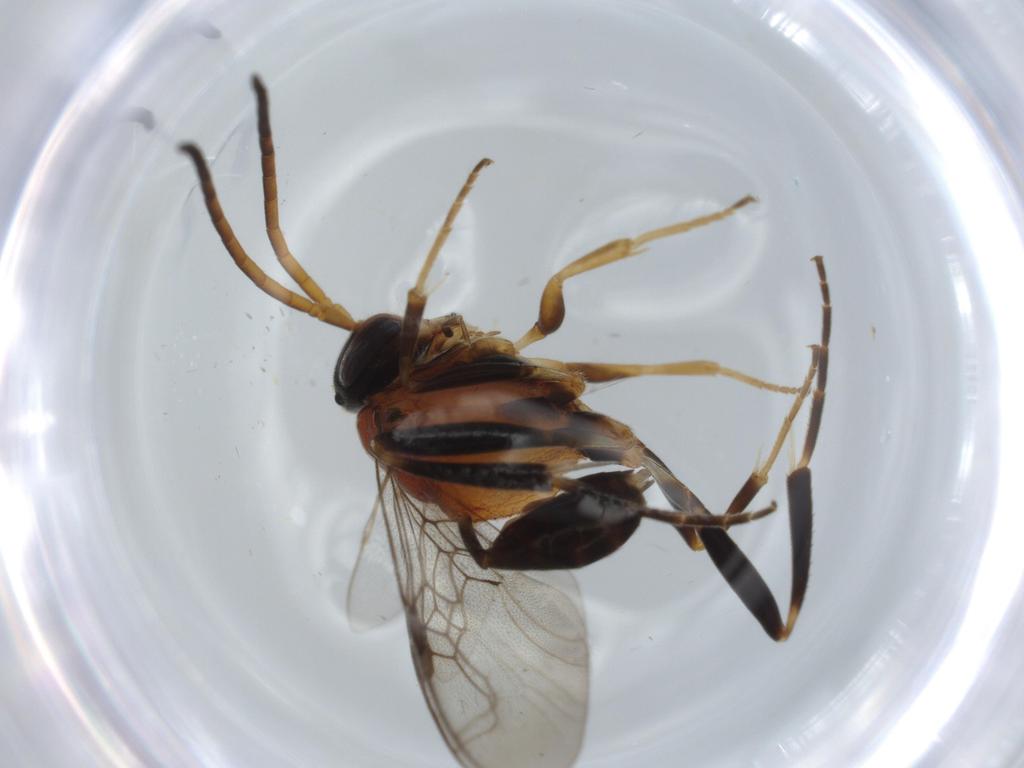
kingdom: Animalia
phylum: Arthropoda
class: Insecta
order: Hymenoptera
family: Evaniidae
